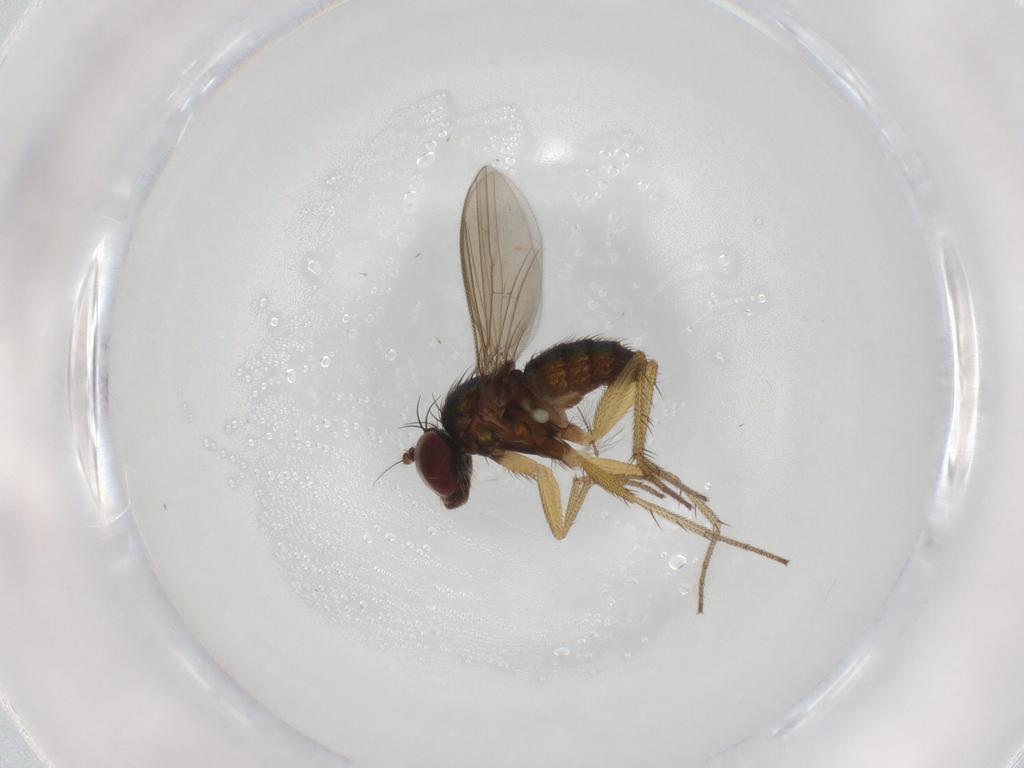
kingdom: Animalia
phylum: Arthropoda
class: Insecta
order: Diptera
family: Chironomidae
